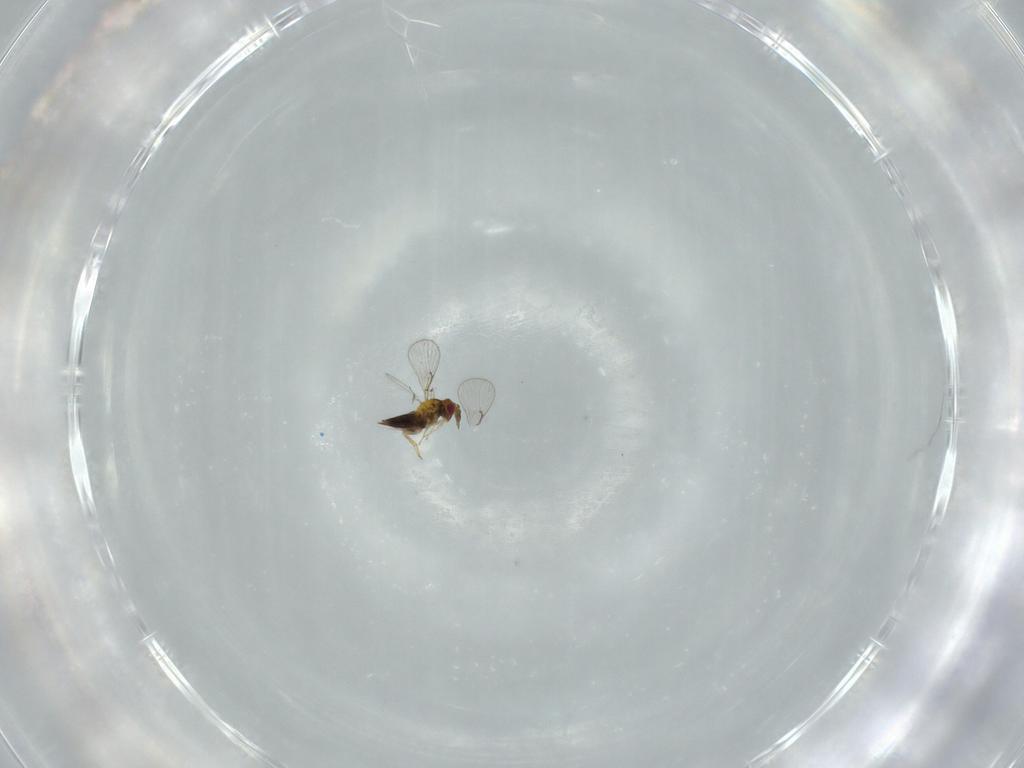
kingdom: Animalia
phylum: Arthropoda
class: Insecta
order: Hymenoptera
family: Trichogrammatidae
